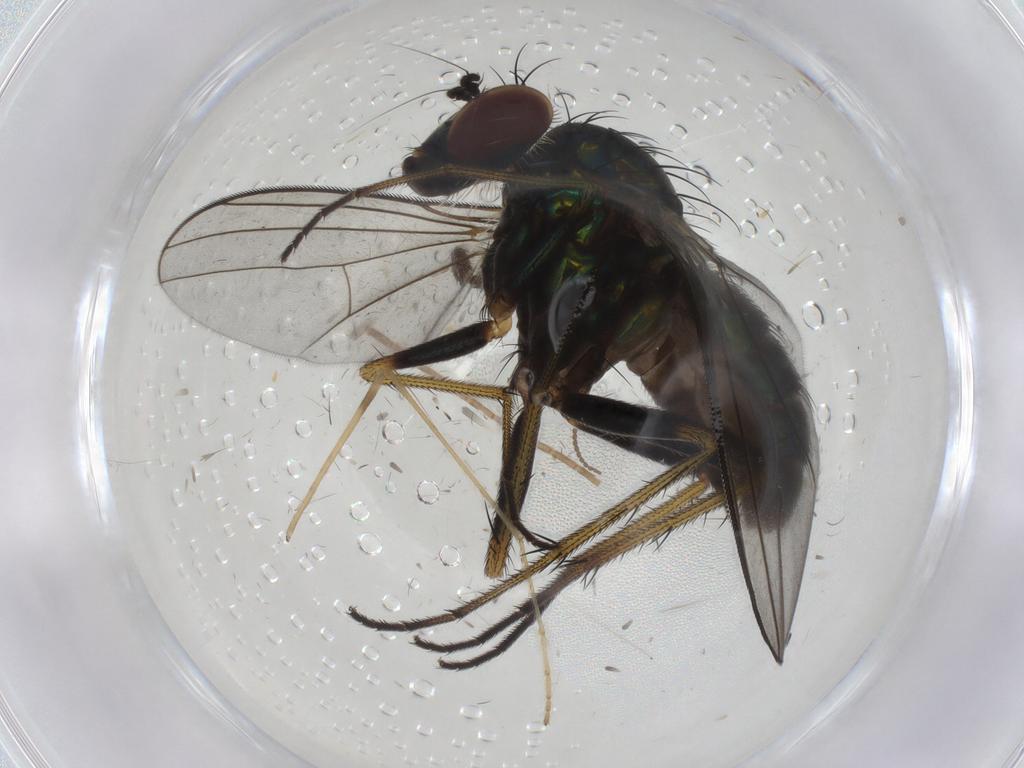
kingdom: Animalia
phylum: Arthropoda
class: Insecta
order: Diptera
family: Dolichopodidae
